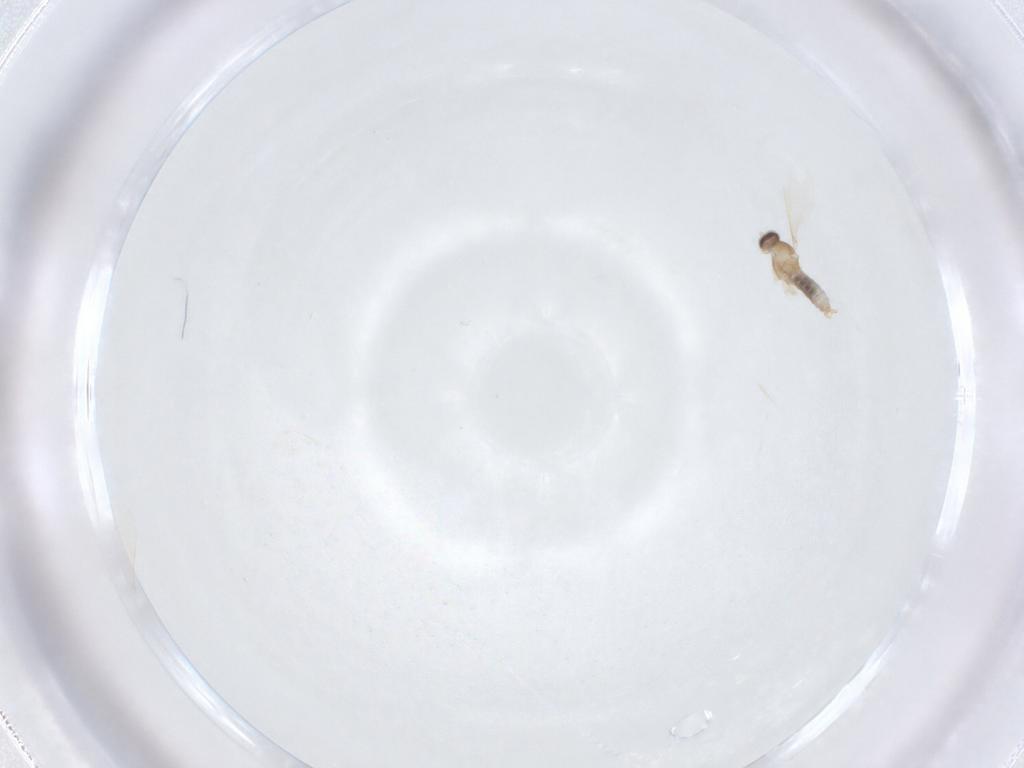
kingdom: Animalia
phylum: Arthropoda
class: Insecta
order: Diptera
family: Cecidomyiidae
